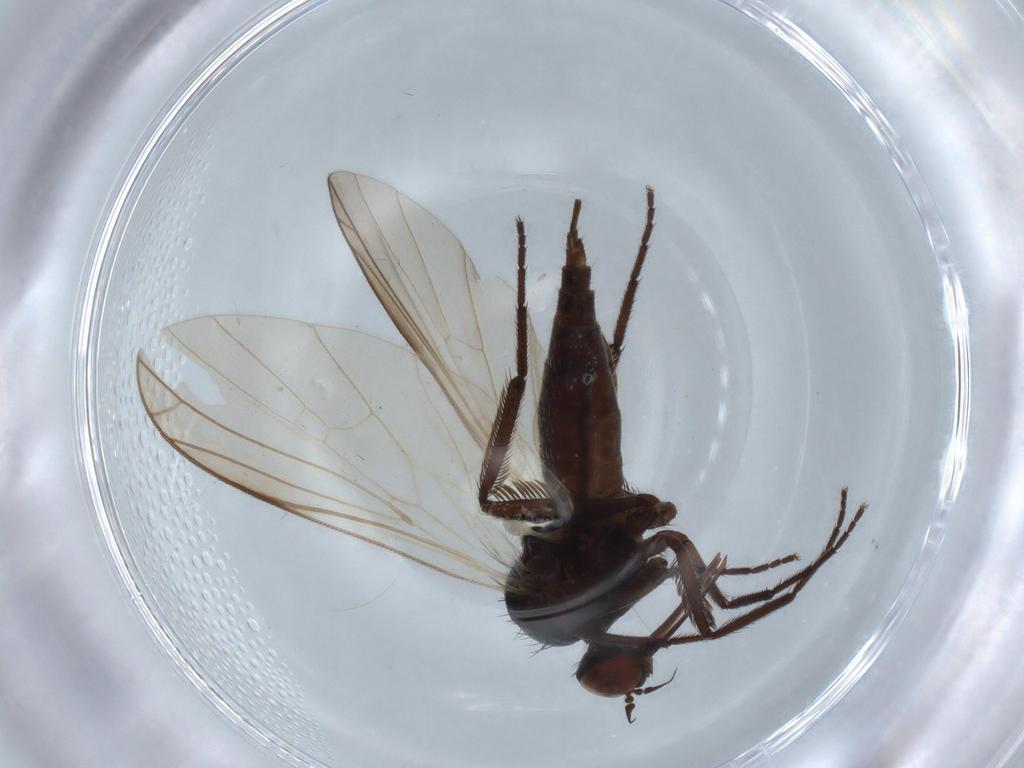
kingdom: Animalia
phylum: Arthropoda
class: Insecta
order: Diptera
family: Empididae
